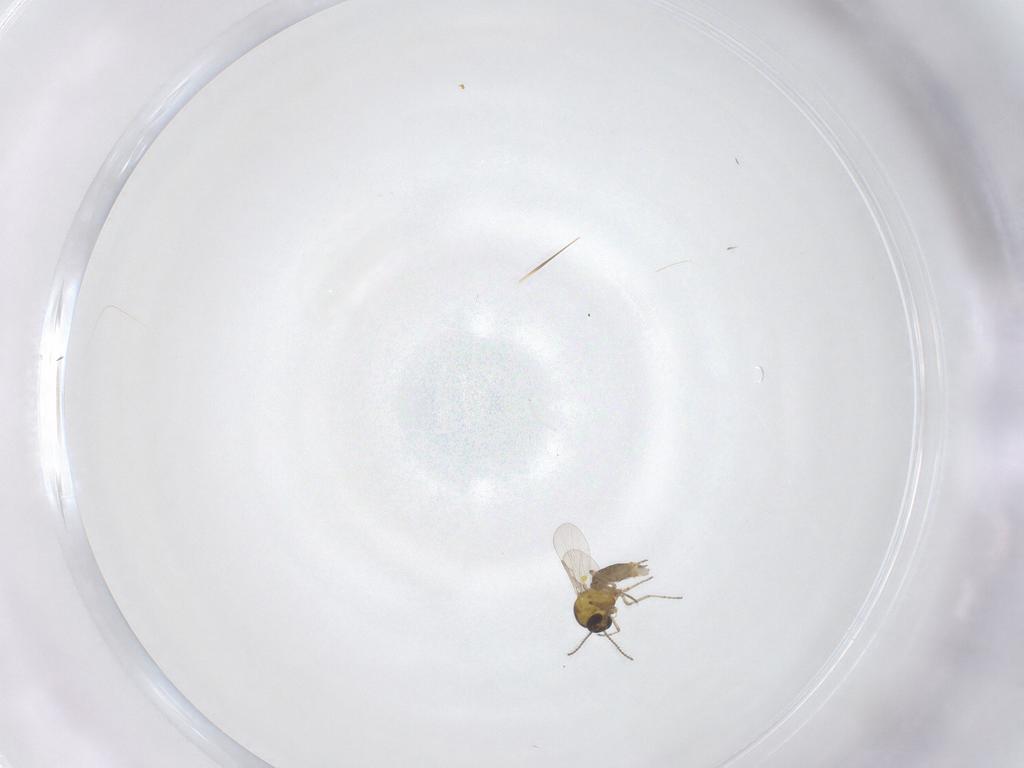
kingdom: Animalia
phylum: Arthropoda
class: Insecta
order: Diptera
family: Ceratopogonidae
